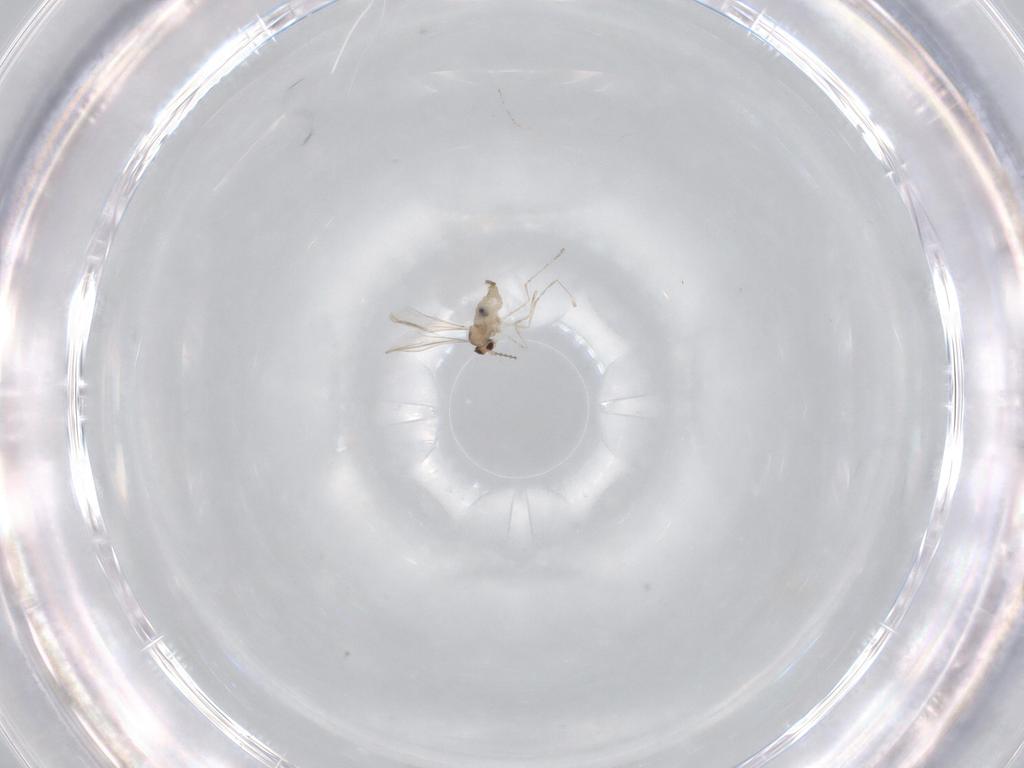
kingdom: Animalia
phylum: Arthropoda
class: Insecta
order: Diptera
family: Cecidomyiidae
